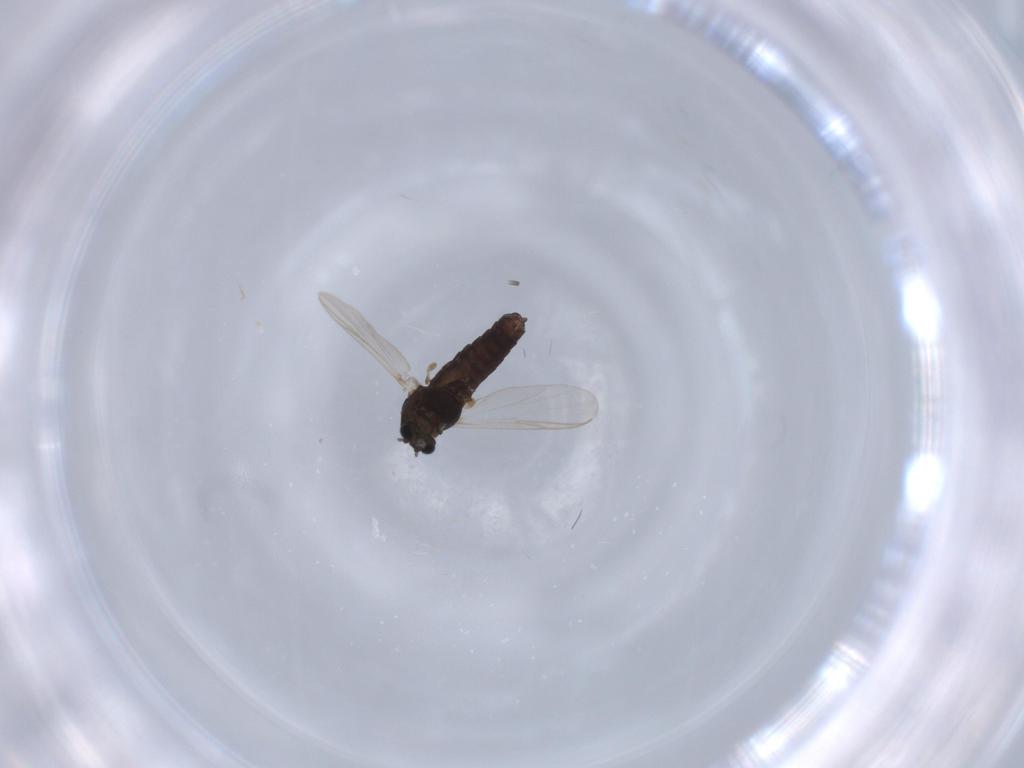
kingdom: Animalia
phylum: Arthropoda
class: Insecta
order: Diptera
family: Chironomidae
